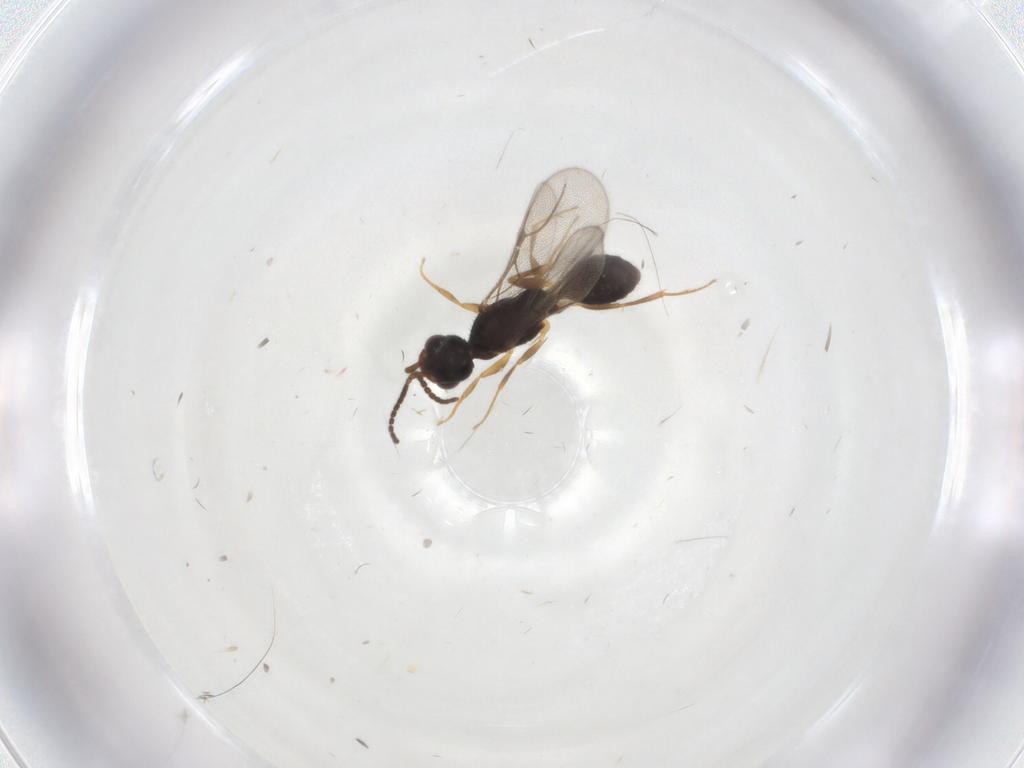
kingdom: Animalia
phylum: Arthropoda
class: Insecta
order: Hymenoptera
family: Bethylidae
